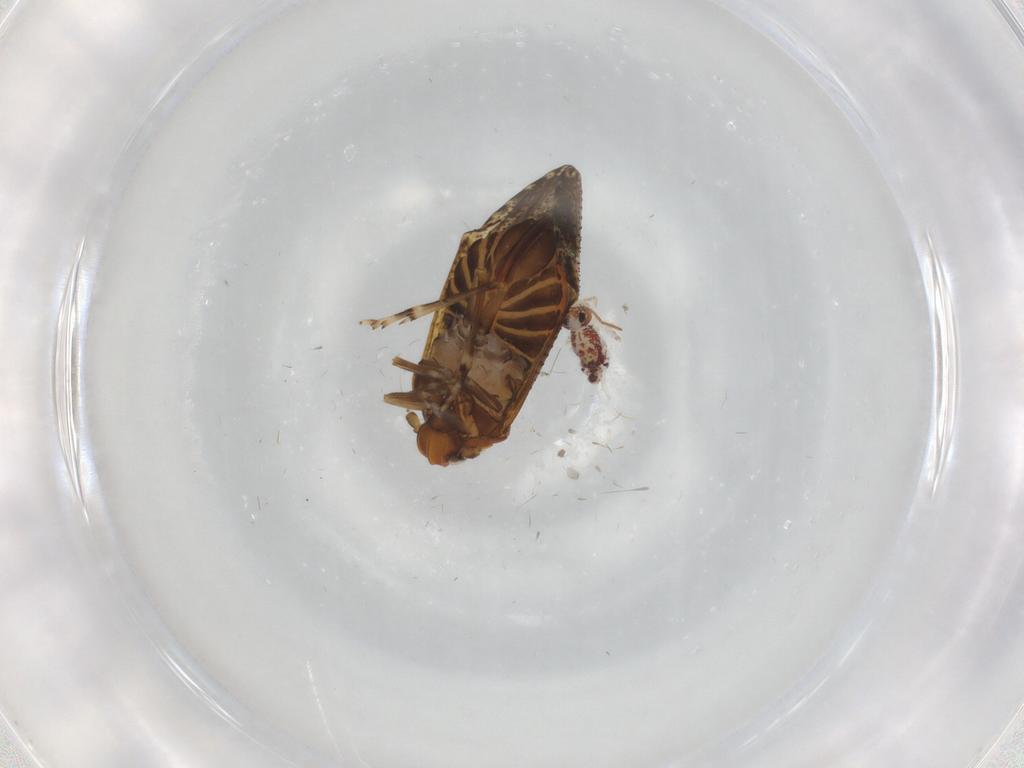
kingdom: Animalia
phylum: Arthropoda
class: Insecta
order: Hemiptera
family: Delphacidae
